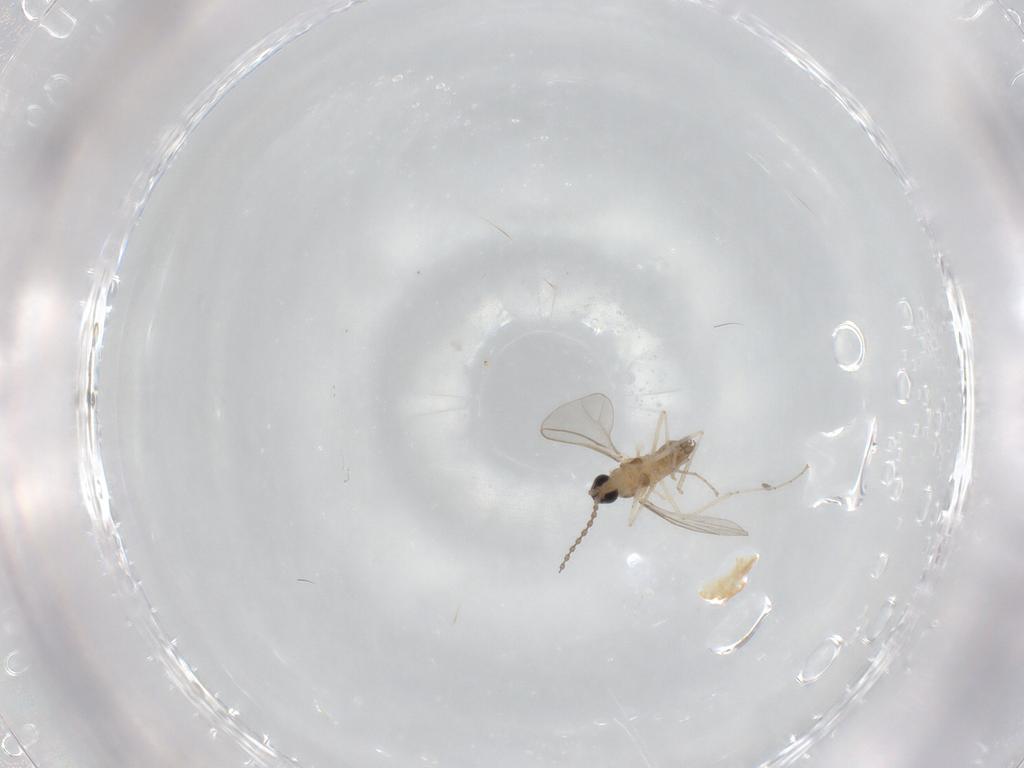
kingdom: Animalia
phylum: Arthropoda
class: Insecta
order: Diptera
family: Cecidomyiidae
